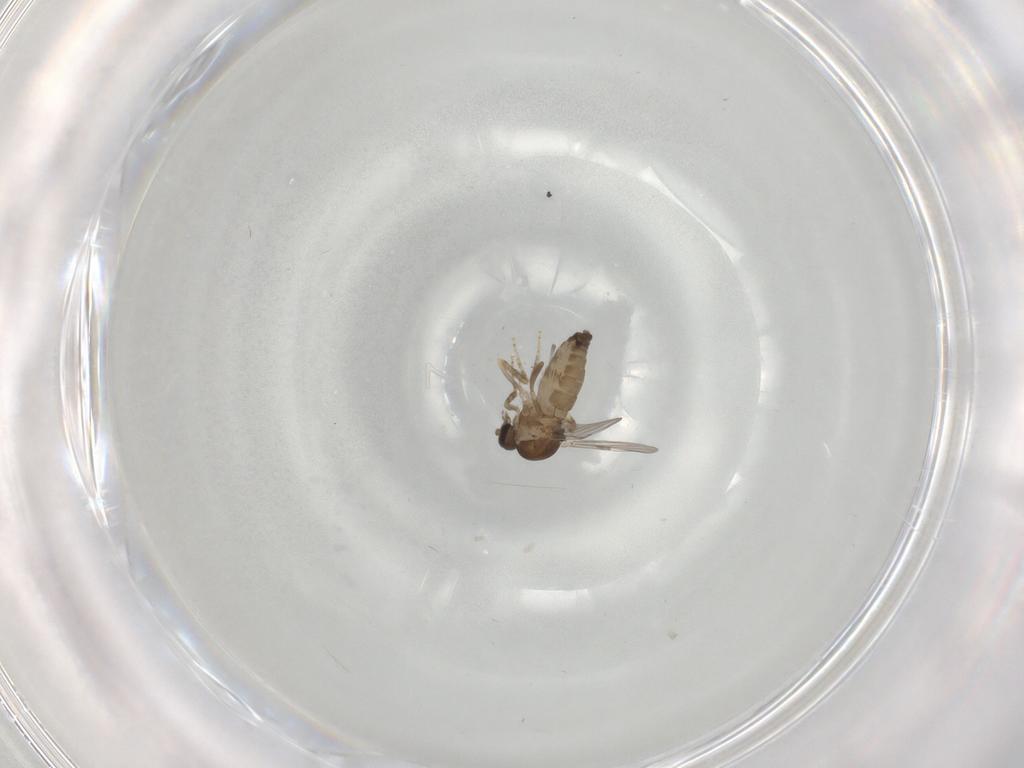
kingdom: Animalia
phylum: Arthropoda
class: Insecta
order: Diptera
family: Ceratopogonidae
